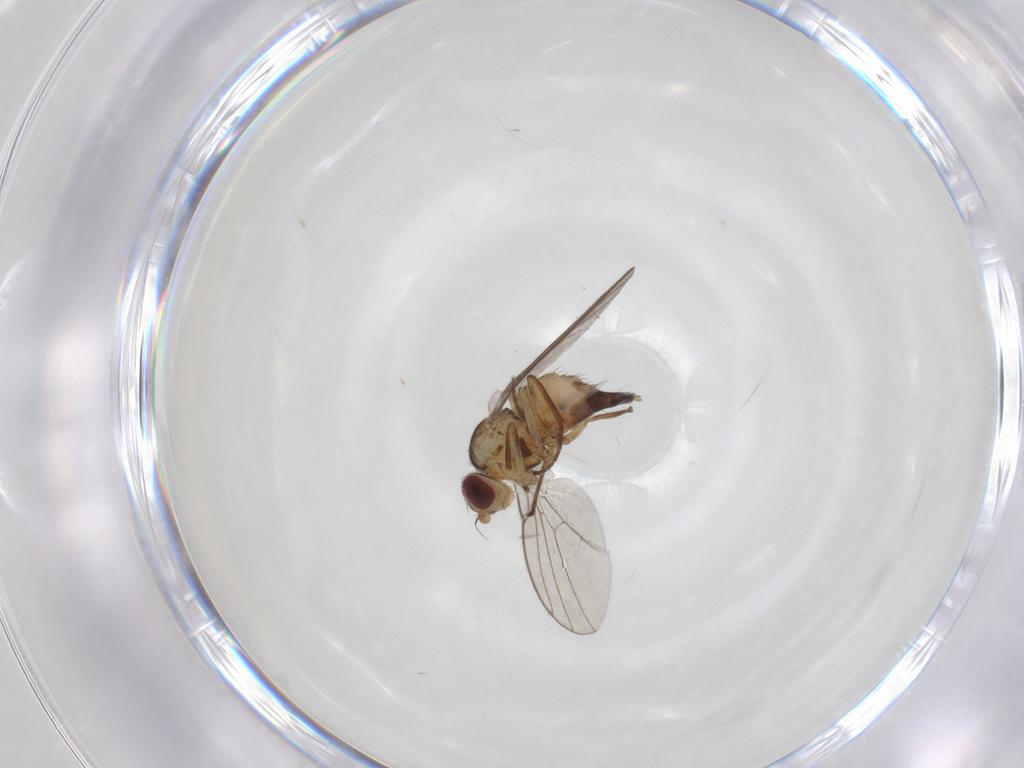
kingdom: Animalia
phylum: Arthropoda
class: Insecta
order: Diptera
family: Agromyzidae
